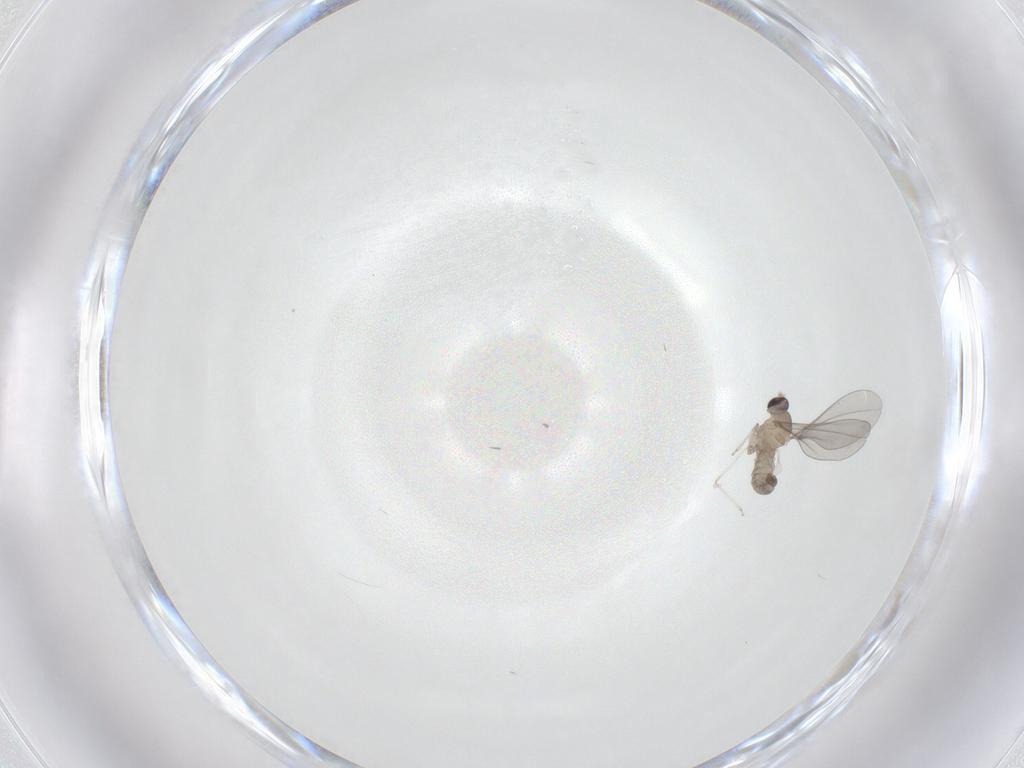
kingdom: Animalia
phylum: Arthropoda
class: Insecta
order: Diptera
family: Cecidomyiidae
